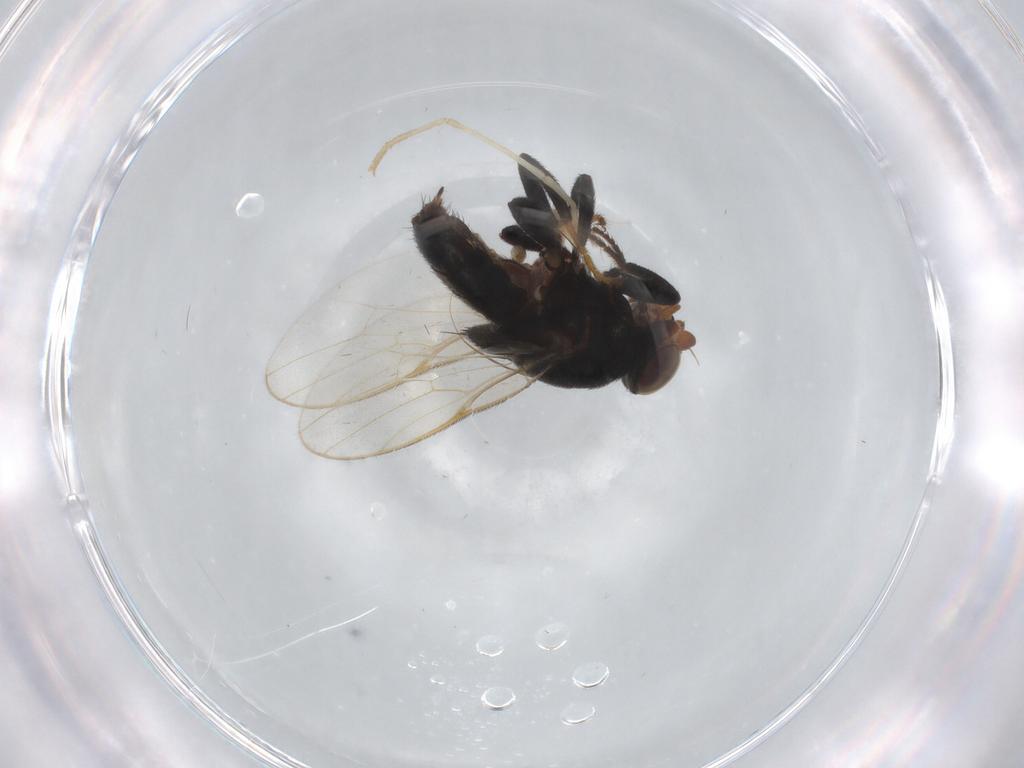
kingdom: Animalia
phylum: Arthropoda
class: Insecta
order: Diptera
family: Chloropidae
